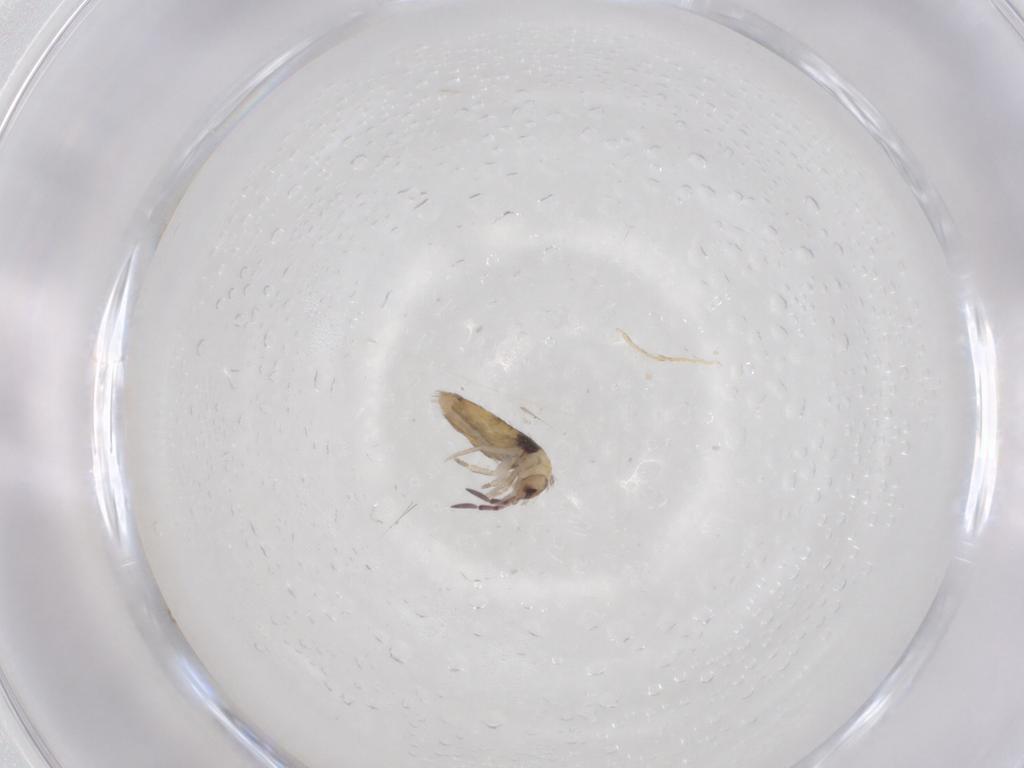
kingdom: Animalia
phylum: Arthropoda
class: Collembola
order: Entomobryomorpha
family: Entomobryidae
